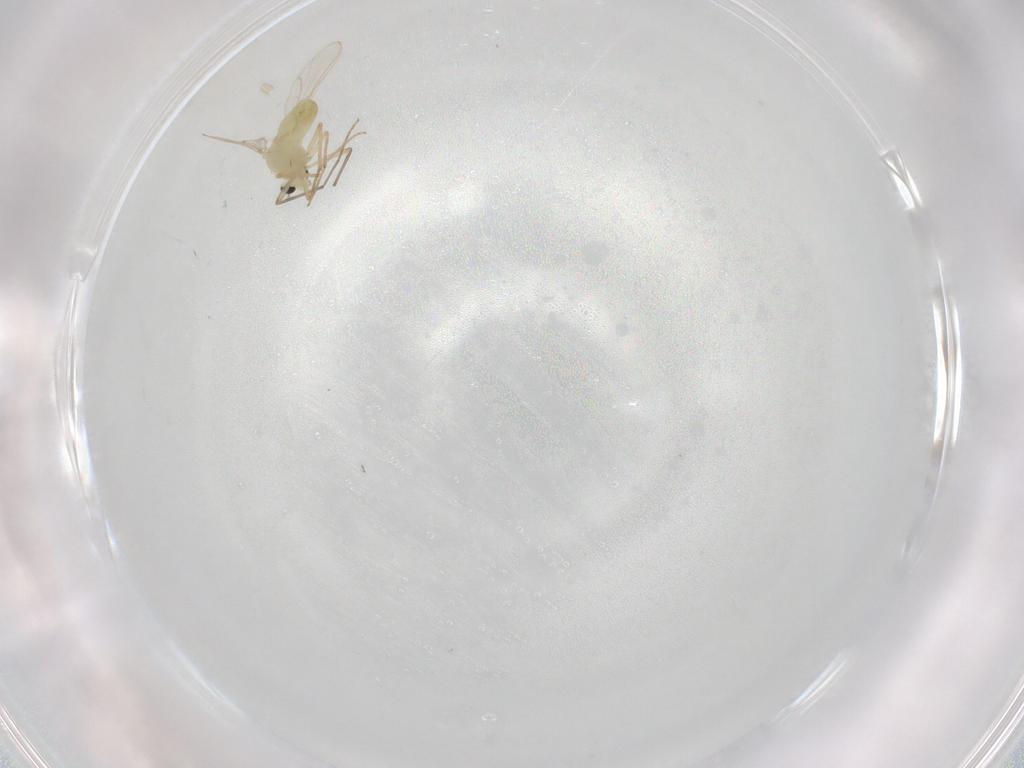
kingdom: Animalia
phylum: Arthropoda
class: Insecta
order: Diptera
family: Chironomidae
